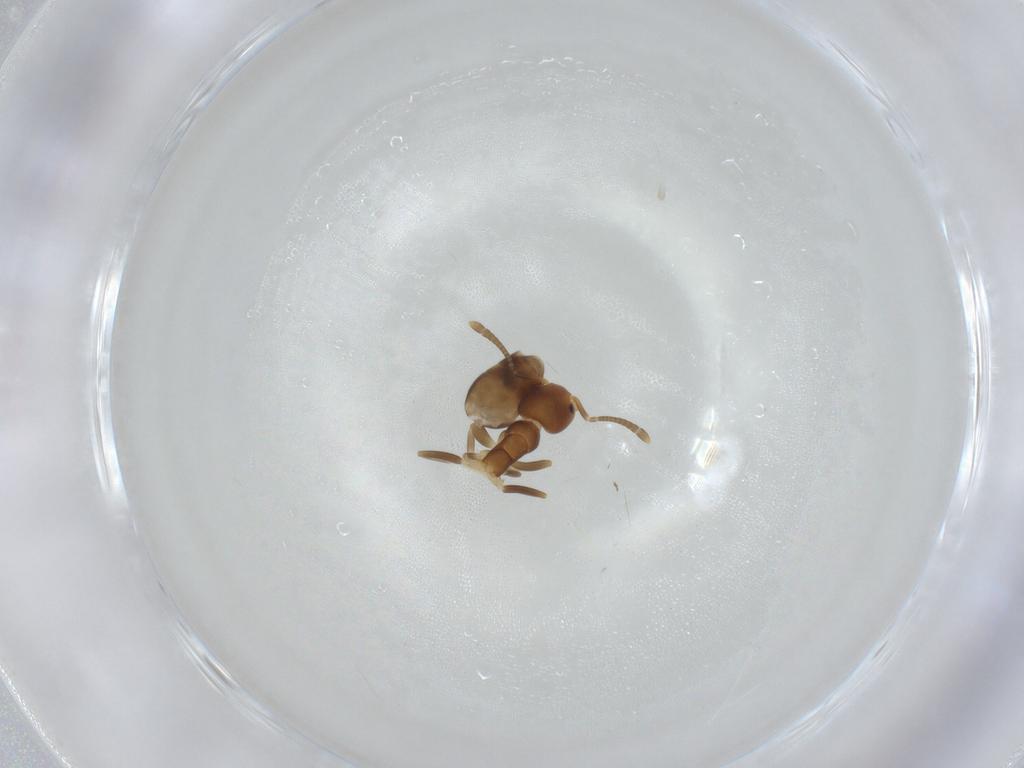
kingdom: Animalia
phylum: Arthropoda
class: Insecta
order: Hymenoptera
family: Formicidae
